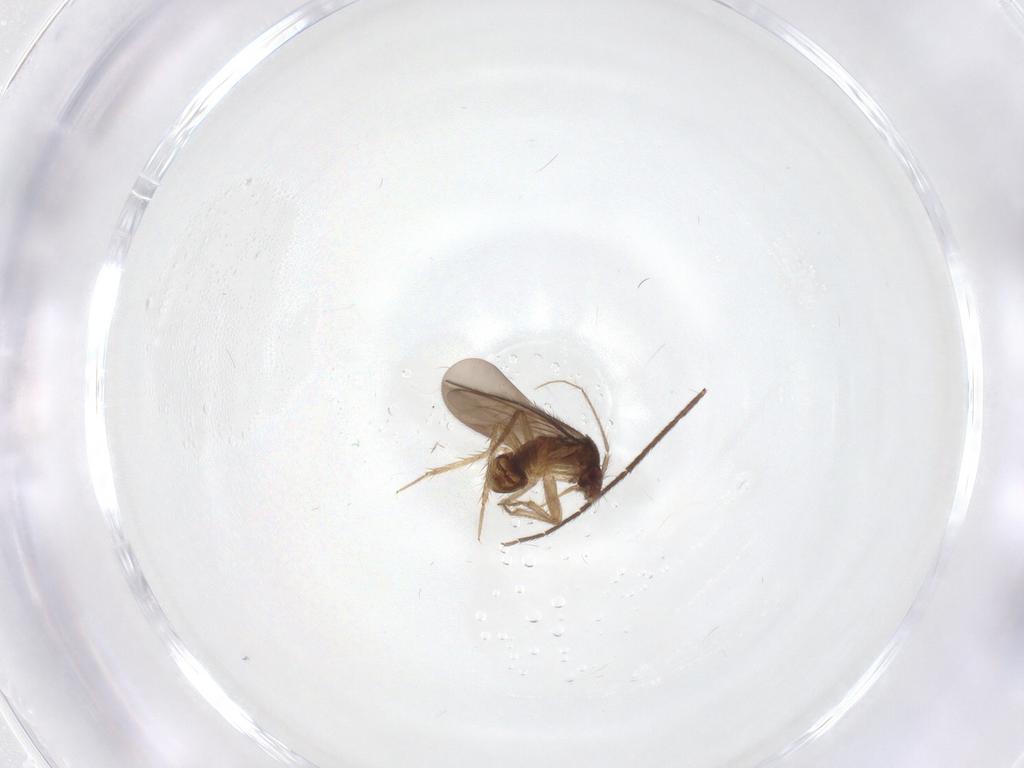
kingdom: Animalia
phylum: Arthropoda
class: Insecta
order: Hemiptera
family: Ceratocombidae
